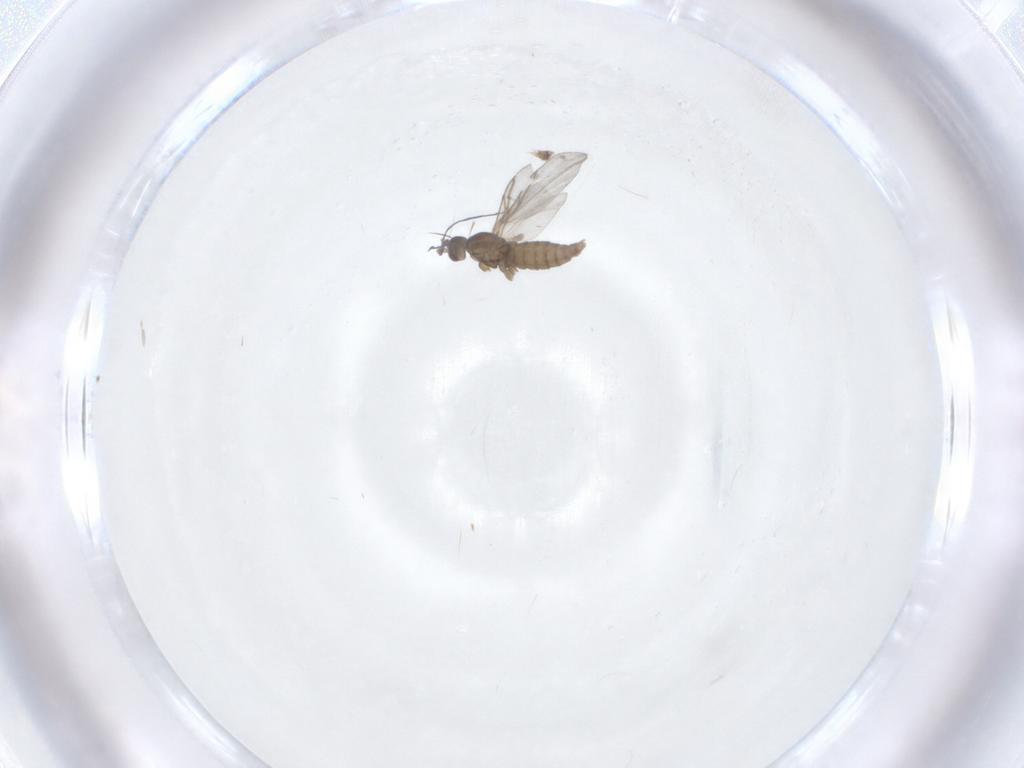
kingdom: Animalia
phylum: Arthropoda
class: Insecta
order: Diptera
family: Cecidomyiidae
